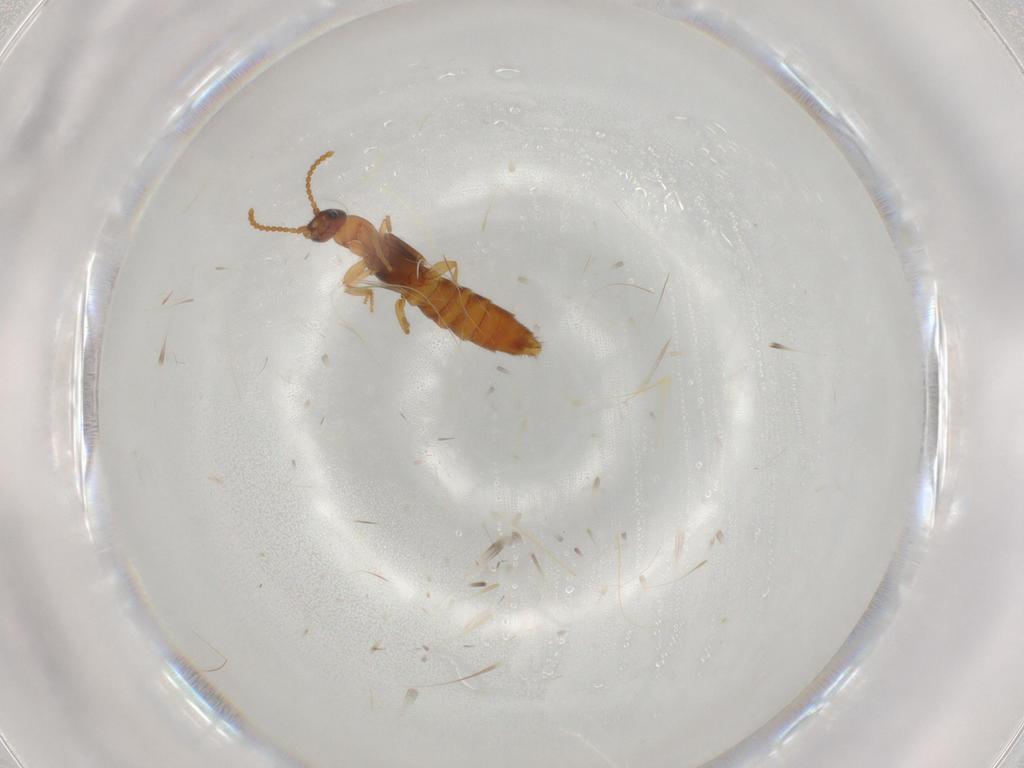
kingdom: Animalia
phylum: Arthropoda
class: Insecta
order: Coleoptera
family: Staphylinidae
